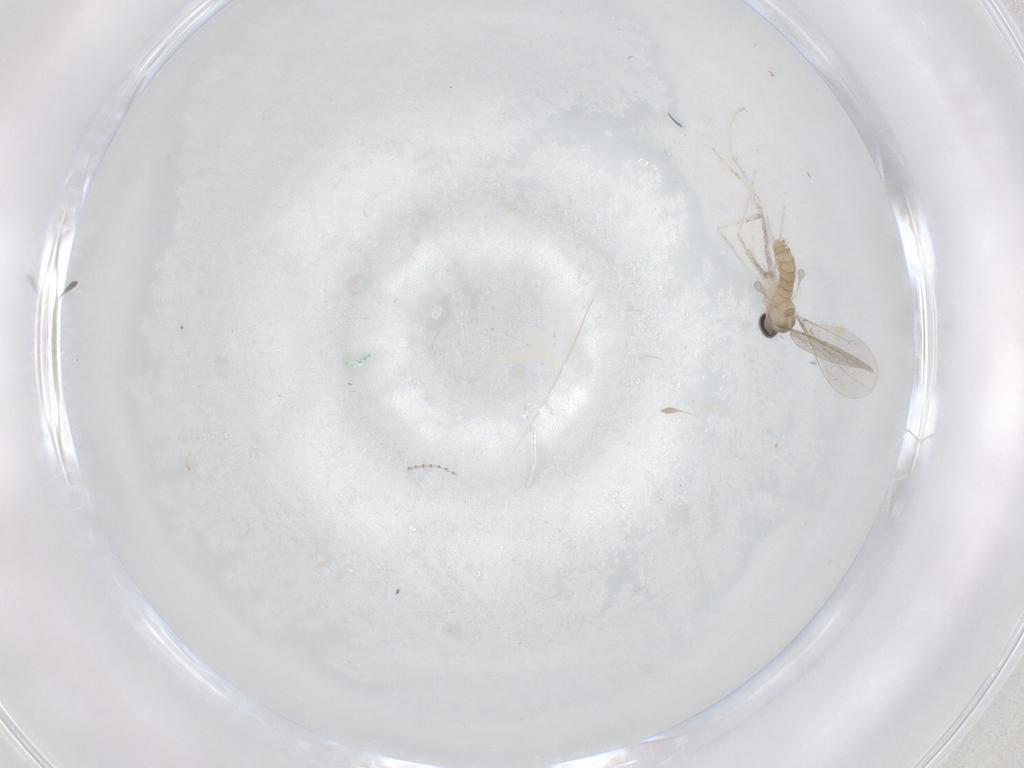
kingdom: Animalia
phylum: Arthropoda
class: Insecta
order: Diptera
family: Cecidomyiidae
